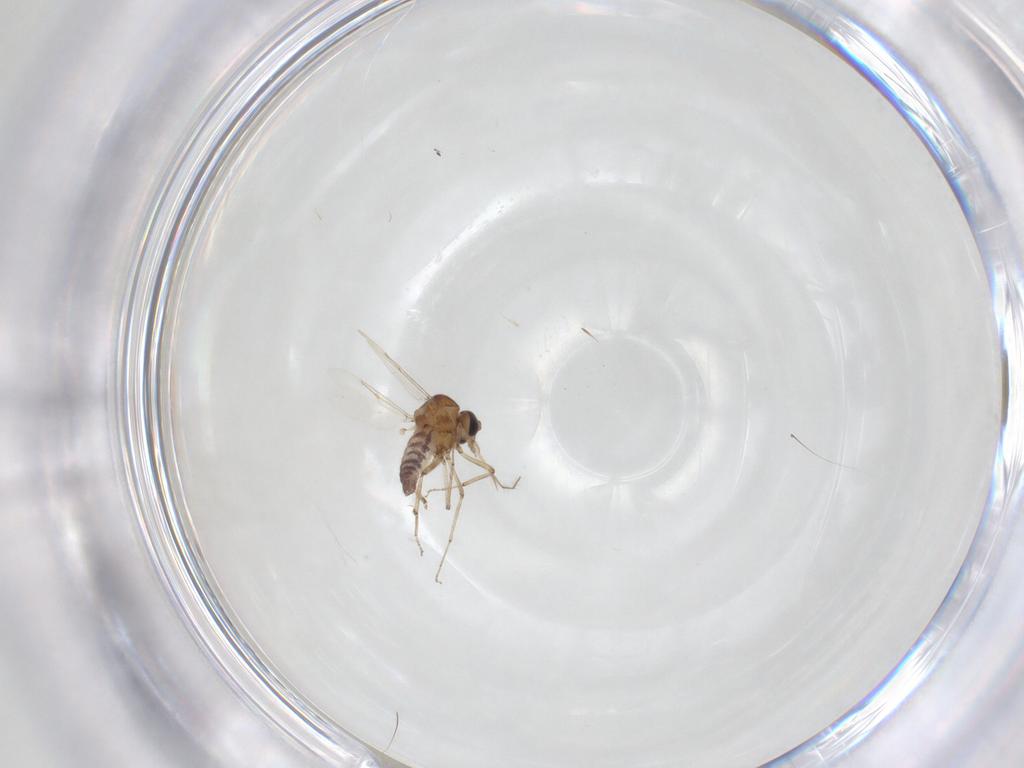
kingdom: Animalia
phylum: Arthropoda
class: Insecta
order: Diptera
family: Ceratopogonidae
